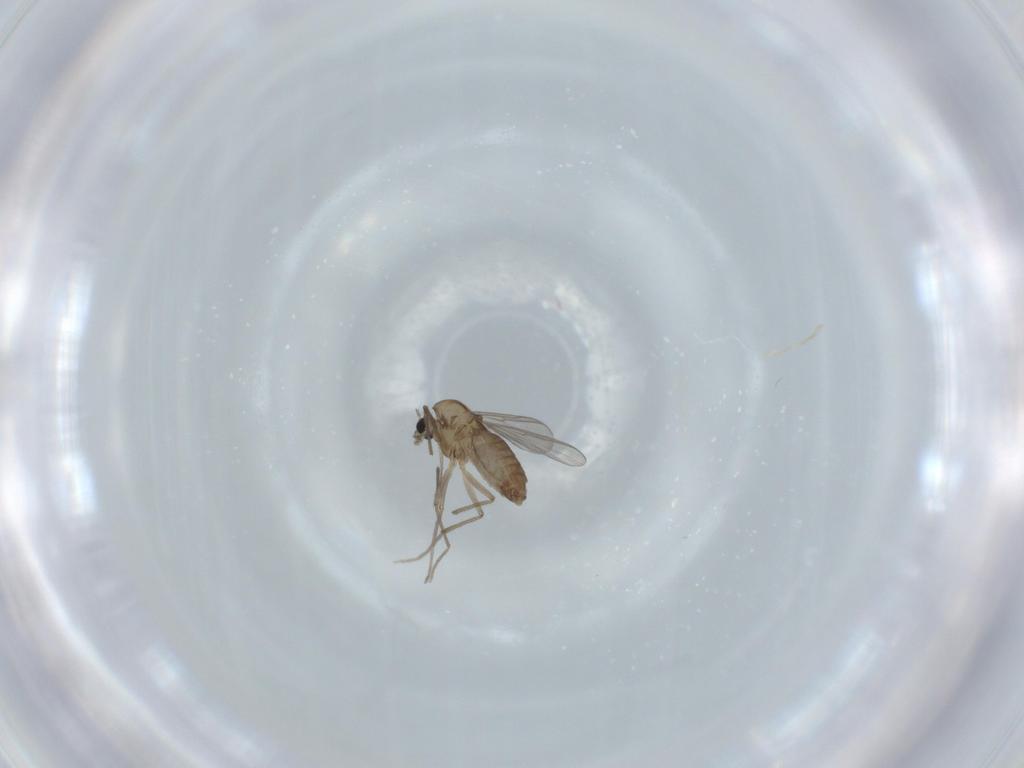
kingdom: Animalia
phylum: Arthropoda
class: Insecta
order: Diptera
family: Chironomidae
